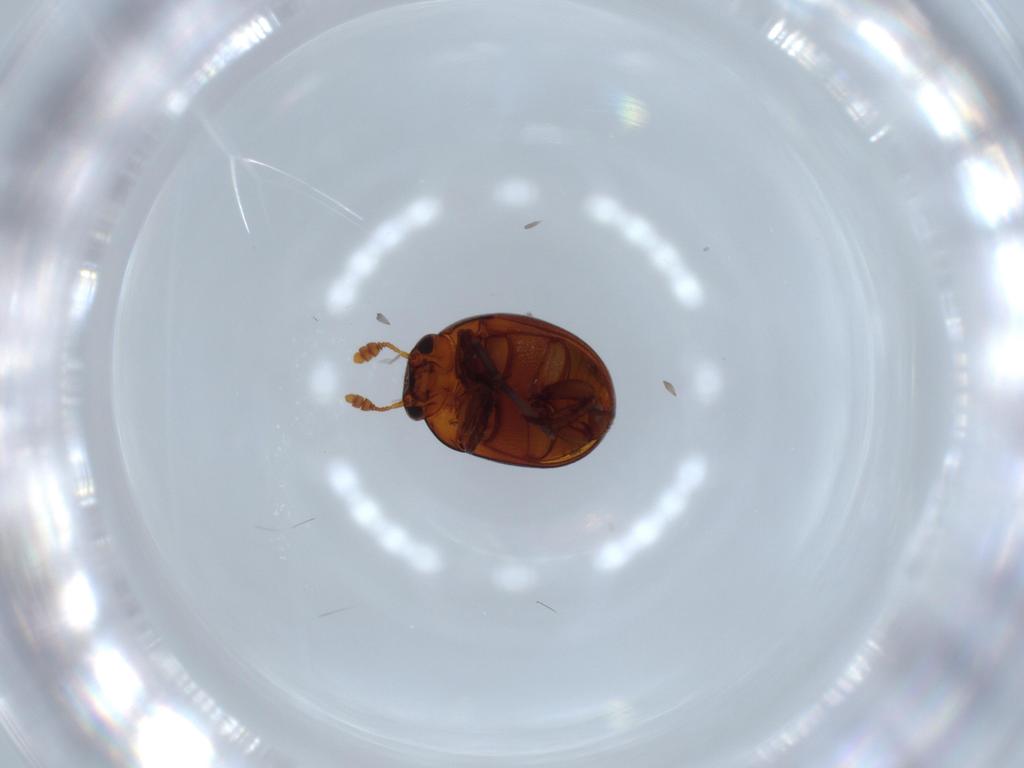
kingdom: Animalia
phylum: Arthropoda
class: Insecta
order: Coleoptera
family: Leiodidae
